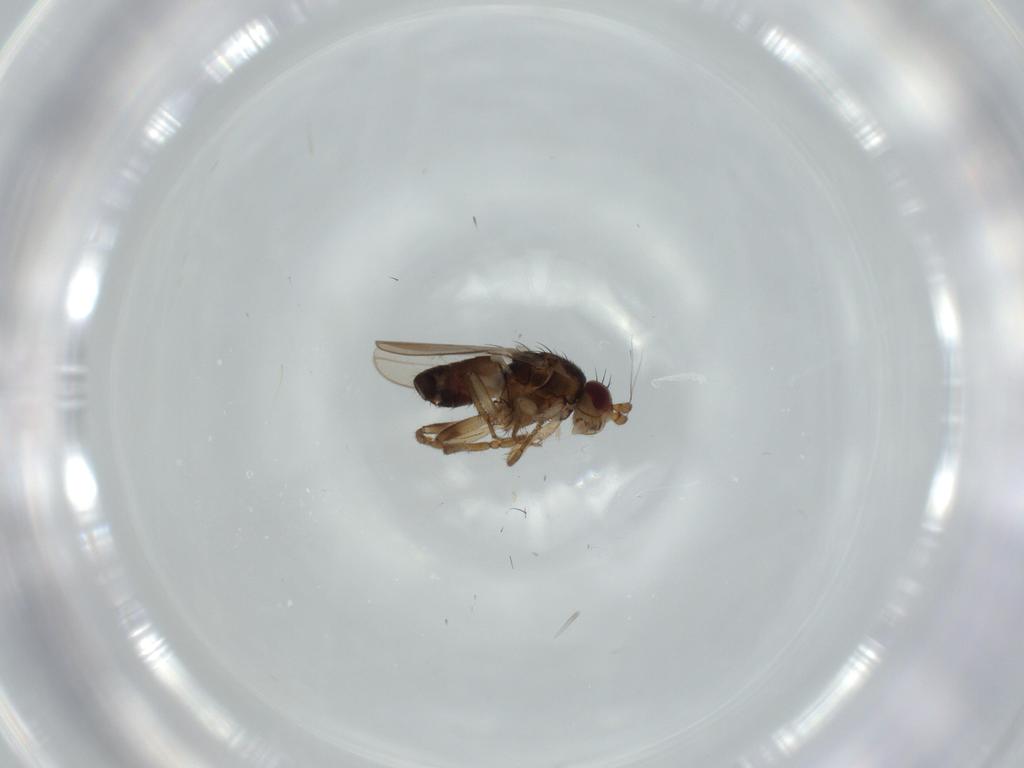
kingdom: Animalia
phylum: Arthropoda
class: Insecta
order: Diptera
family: Sphaeroceridae
